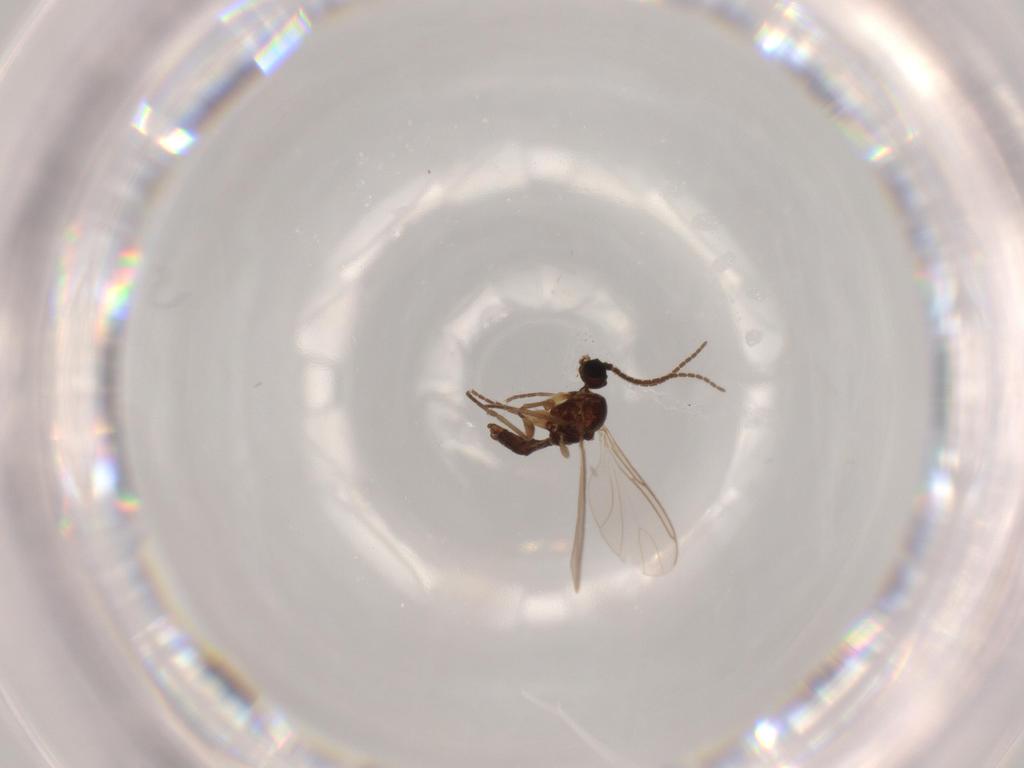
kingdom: Animalia
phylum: Arthropoda
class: Insecta
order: Diptera
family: Sciaridae
